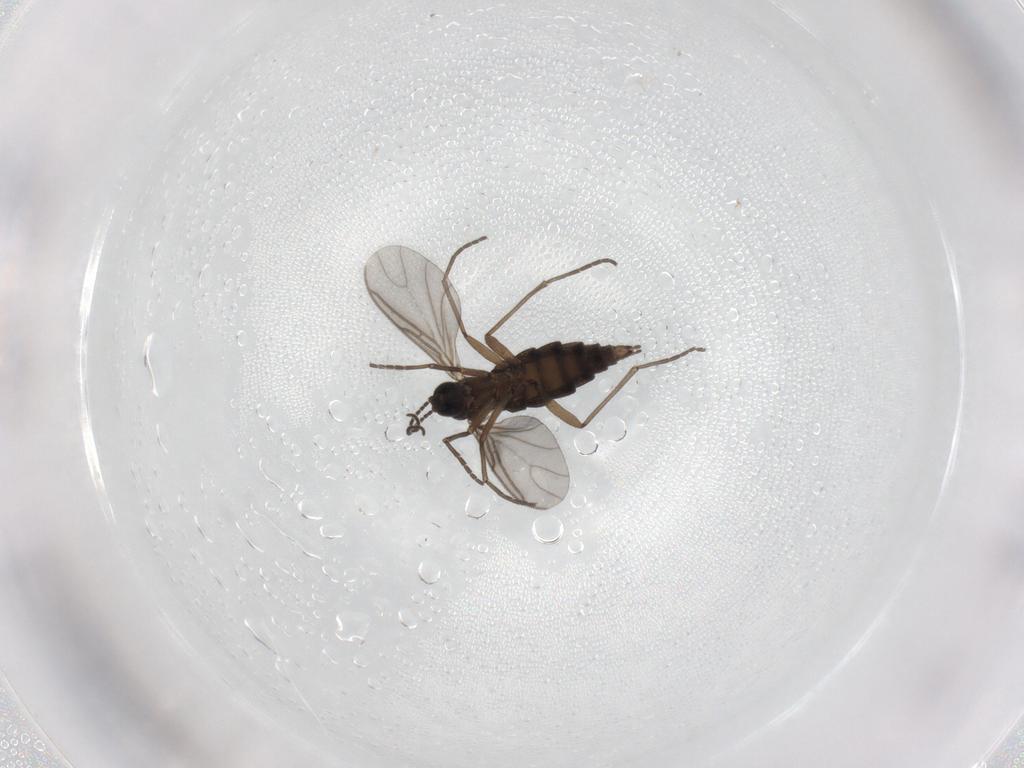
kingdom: Animalia
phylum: Arthropoda
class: Insecta
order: Diptera
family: Sciaridae
